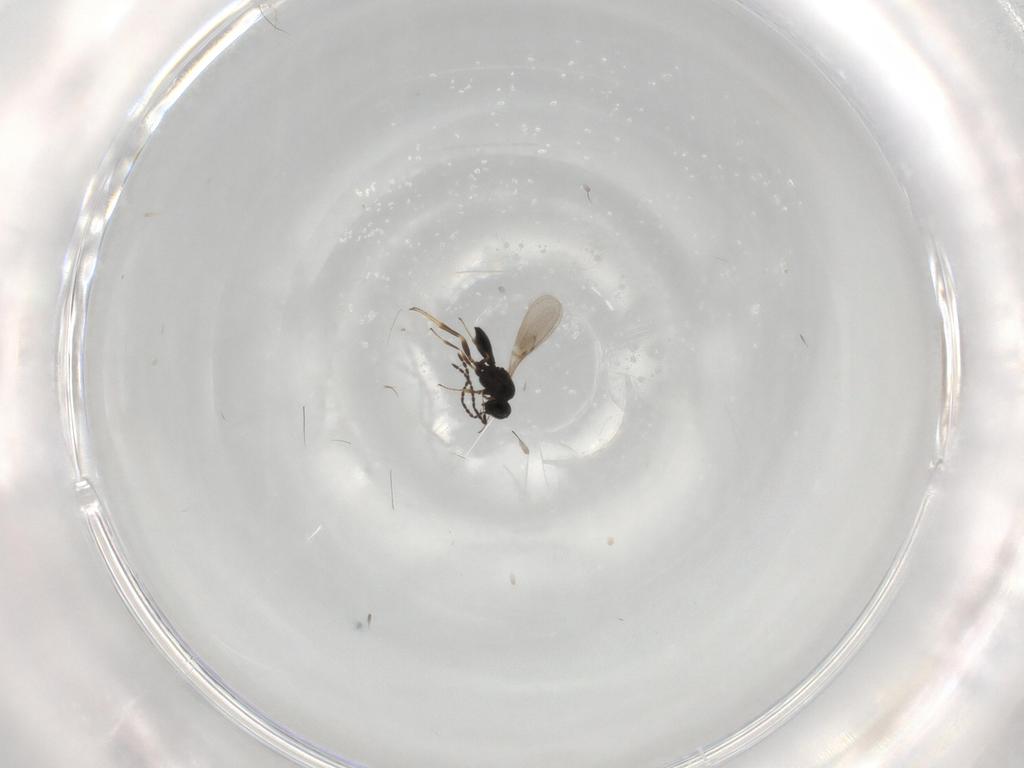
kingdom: Animalia
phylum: Arthropoda
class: Insecta
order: Hymenoptera
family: Scelionidae
